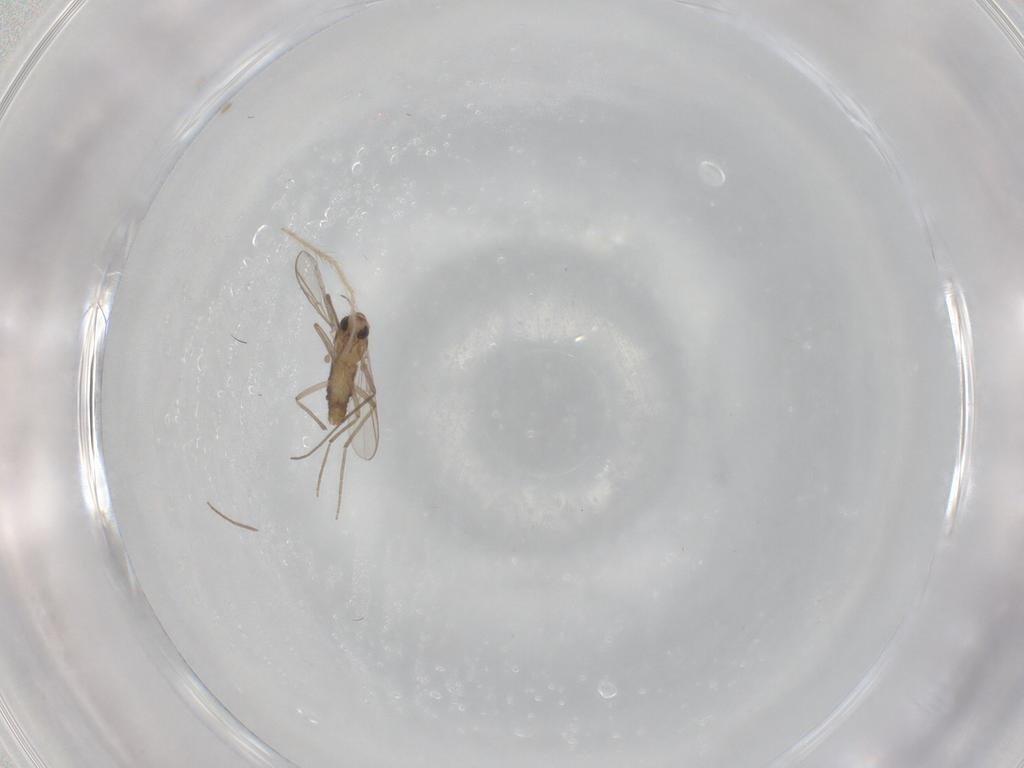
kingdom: Animalia
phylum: Arthropoda
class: Insecta
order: Diptera
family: Chironomidae
